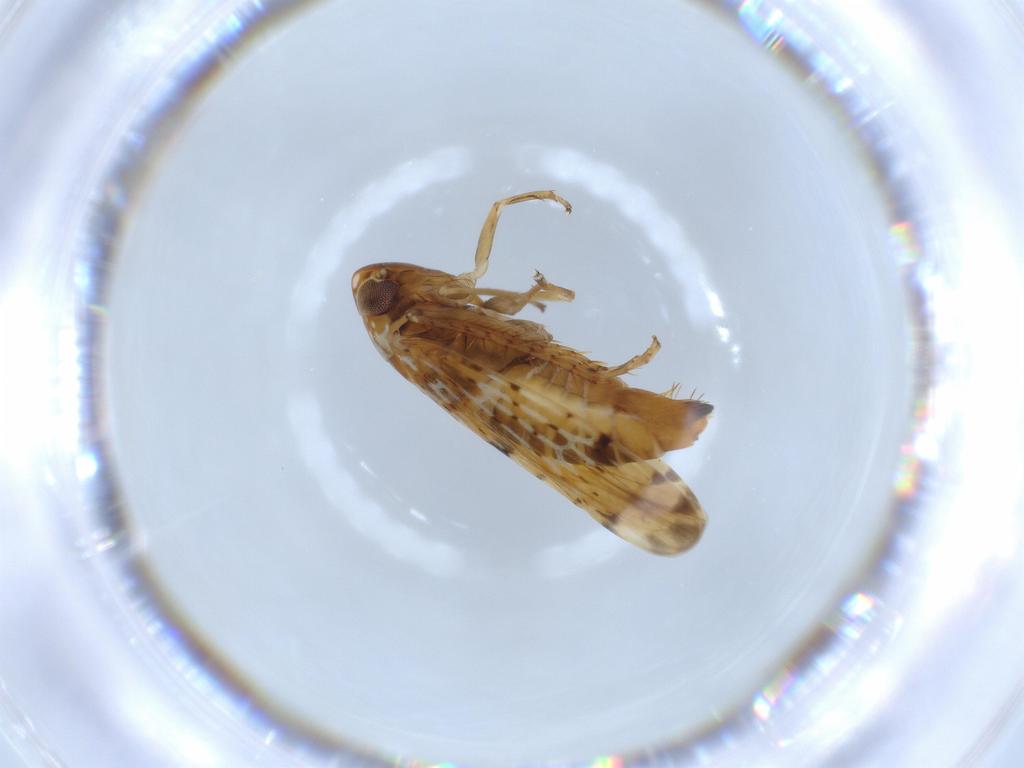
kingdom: Animalia
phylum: Arthropoda
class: Insecta
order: Hemiptera
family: Cicadellidae
